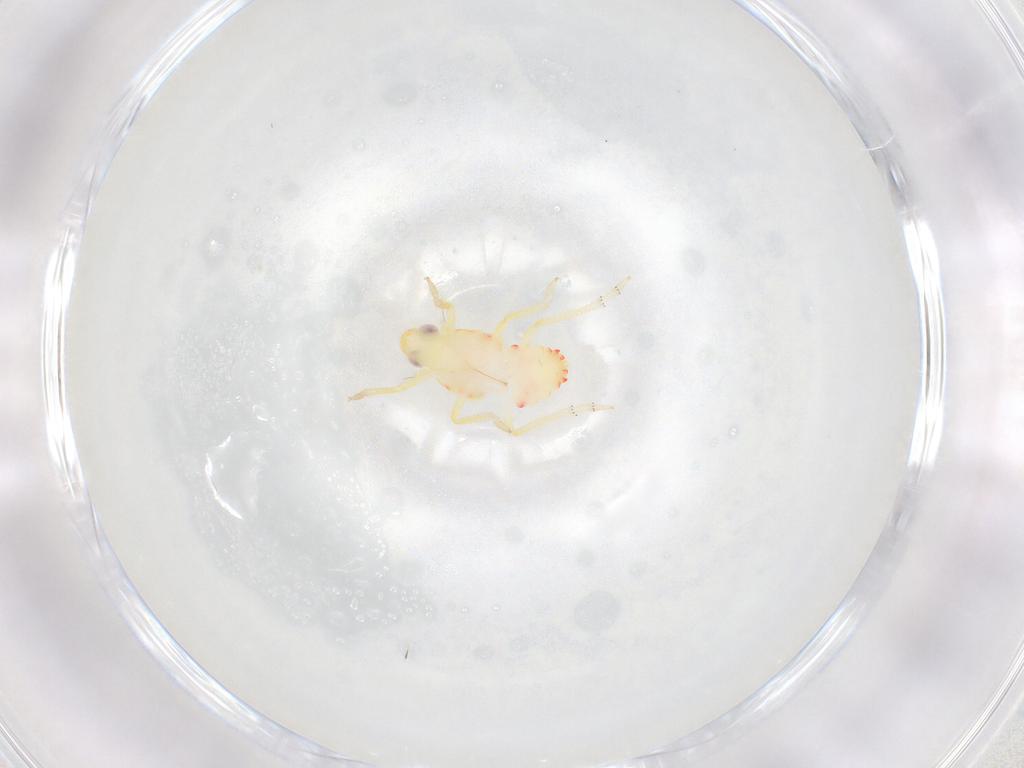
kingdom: Animalia
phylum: Arthropoda
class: Insecta
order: Hemiptera
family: Tropiduchidae
